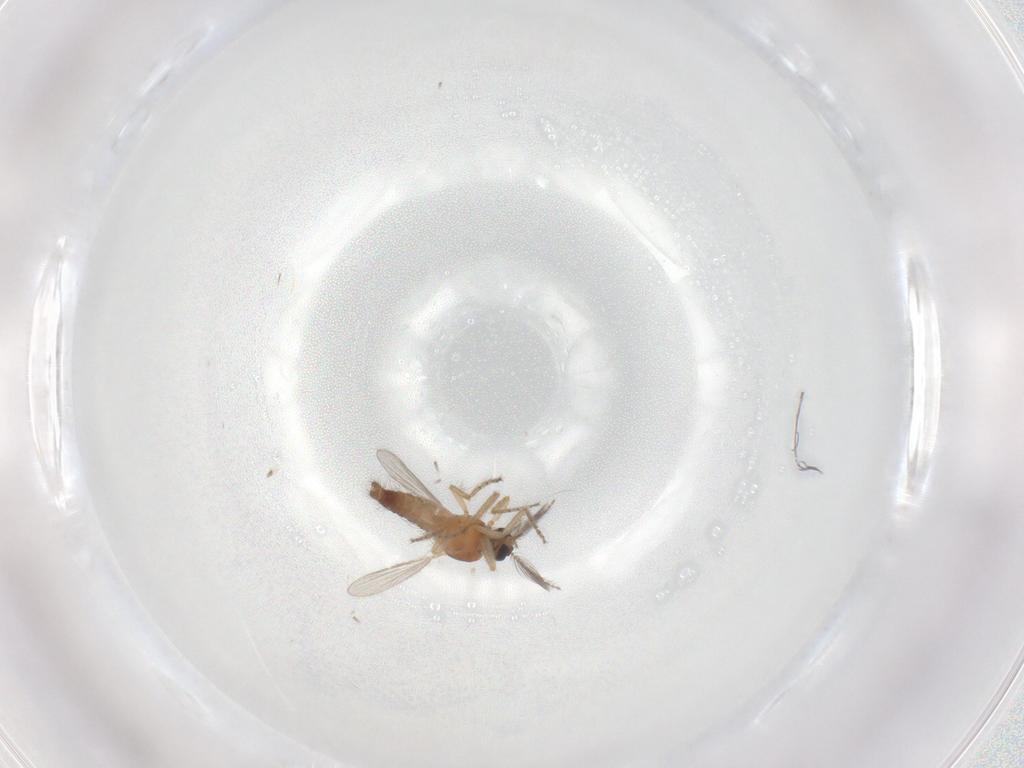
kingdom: Animalia
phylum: Arthropoda
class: Insecta
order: Diptera
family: Ceratopogonidae
